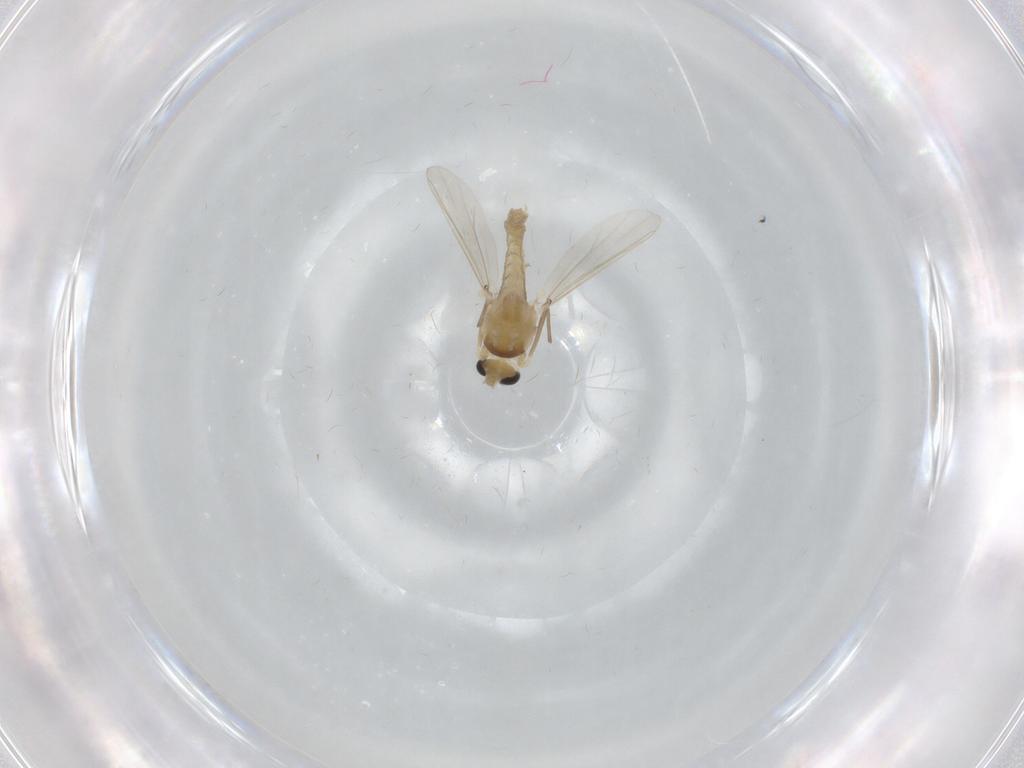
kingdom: Animalia
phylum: Arthropoda
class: Insecta
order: Diptera
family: Chironomidae
